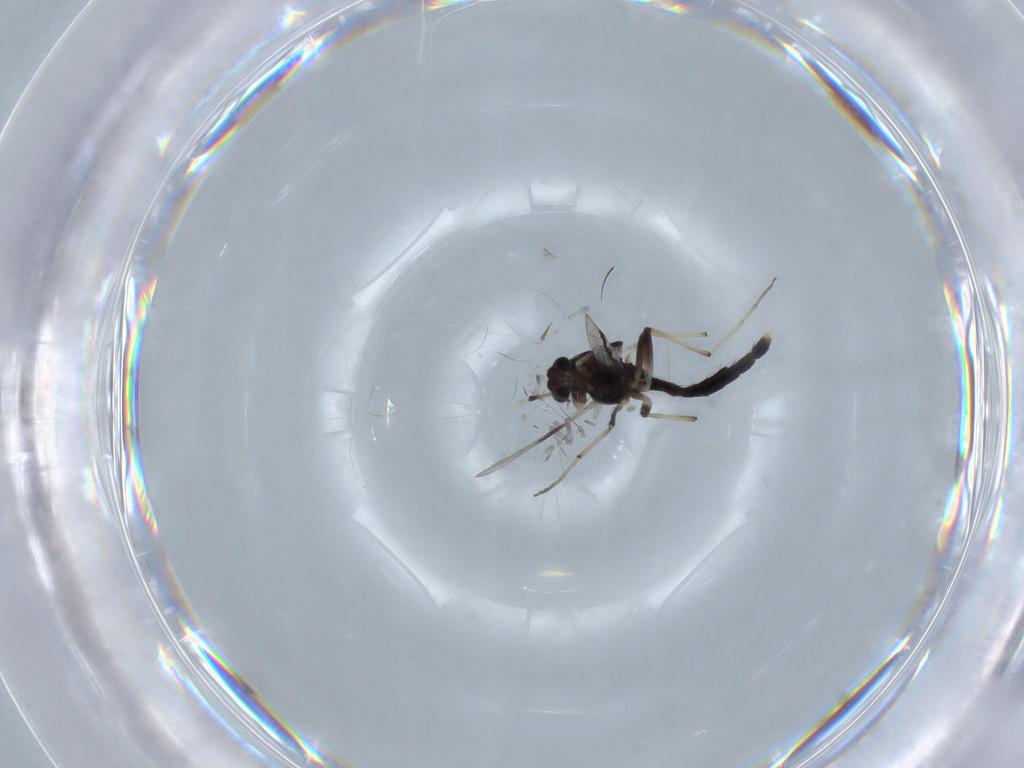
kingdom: Animalia
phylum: Arthropoda
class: Insecta
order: Diptera
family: Chironomidae
